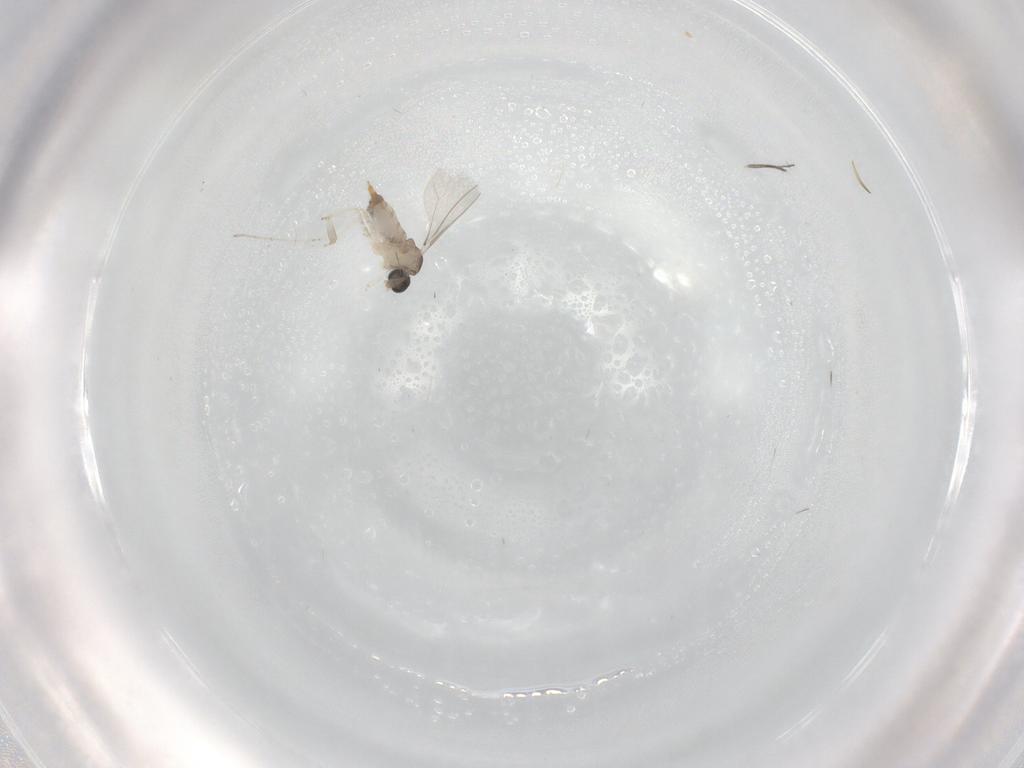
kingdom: Animalia
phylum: Arthropoda
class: Insecta
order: Diptera
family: Cecidomyiidae
